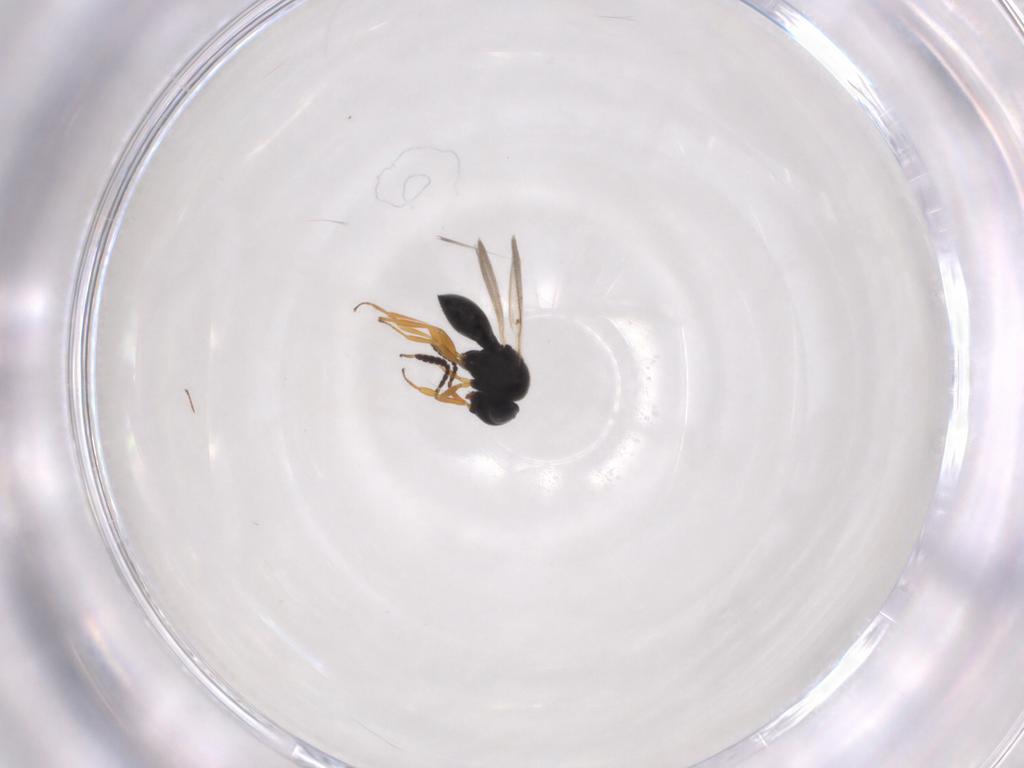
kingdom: Animalia
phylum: Arthropoda
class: Insecta
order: Hymenoptera
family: Scelionidae
